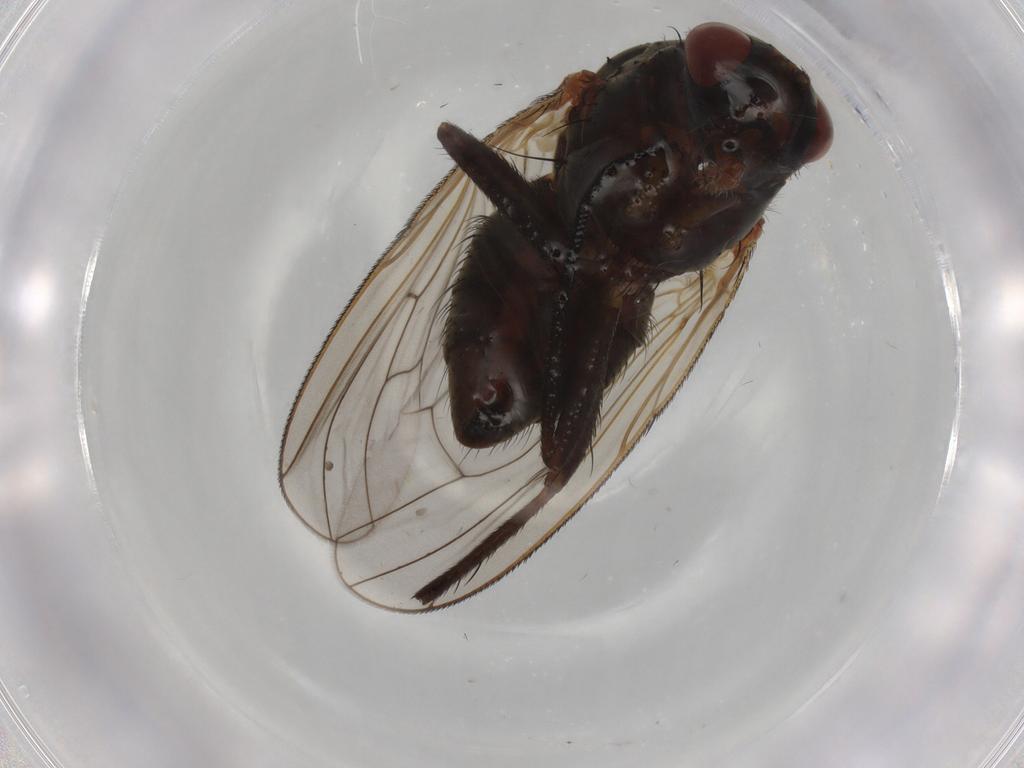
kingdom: Animalia
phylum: Arthropoda
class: Insecta
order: Diptera
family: Anthomyiidae
